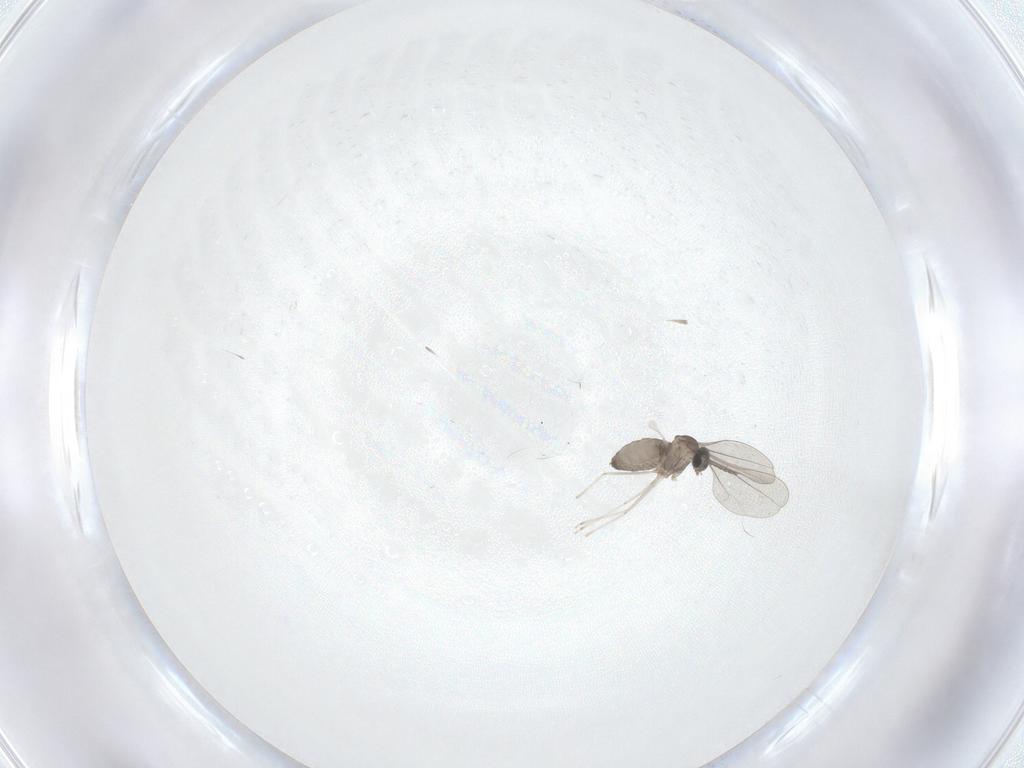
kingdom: Animalia
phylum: Arthropoda
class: Insecta
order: Diptera
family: Cecidomyiidae
